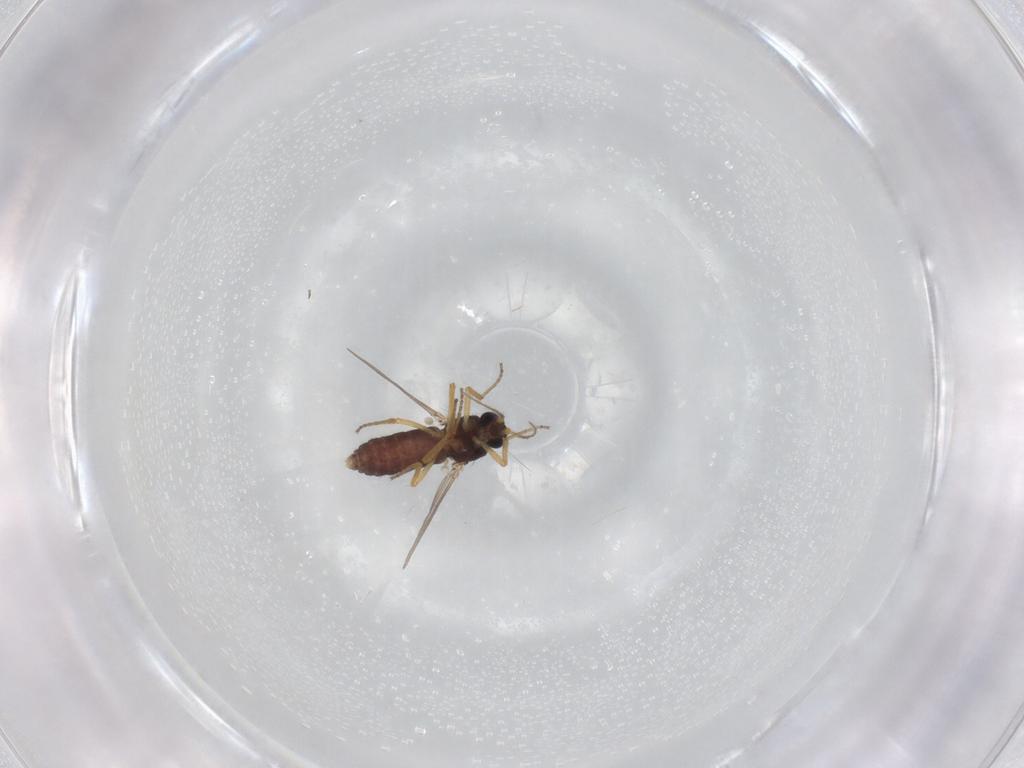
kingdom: Animalia
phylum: Arthropoda
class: Insecta
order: Diptera
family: Ceratopogonidae
